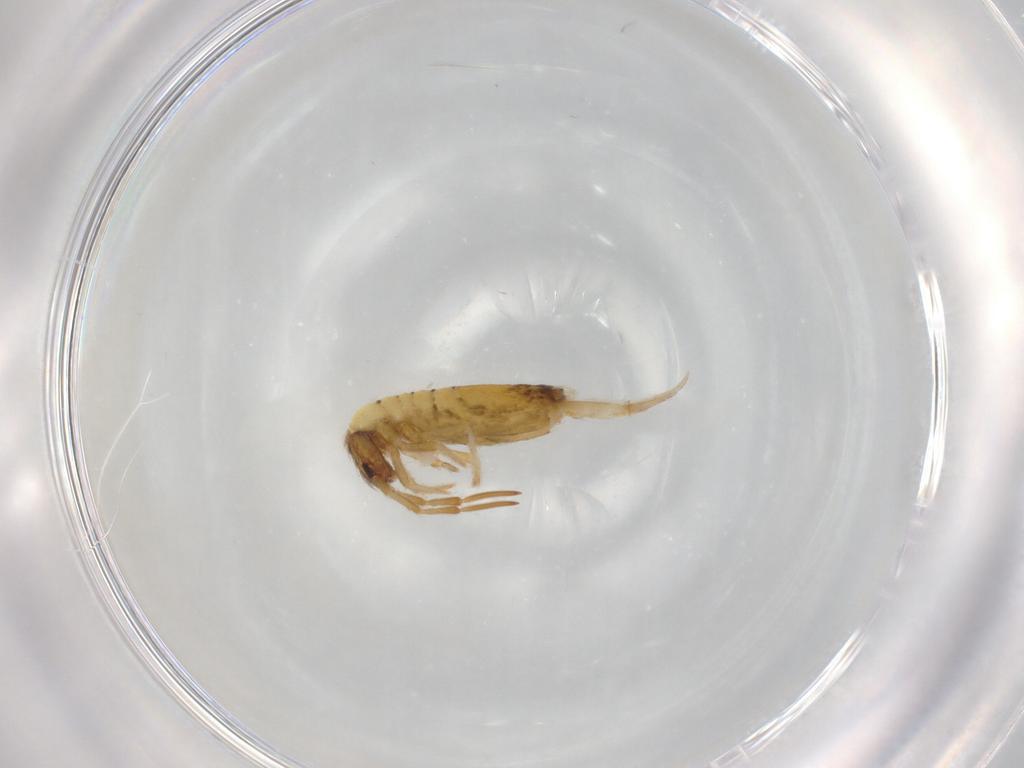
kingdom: Animalia
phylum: Arthropoda
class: Collembola
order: Entomobryomorpha
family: Entomobryidae
